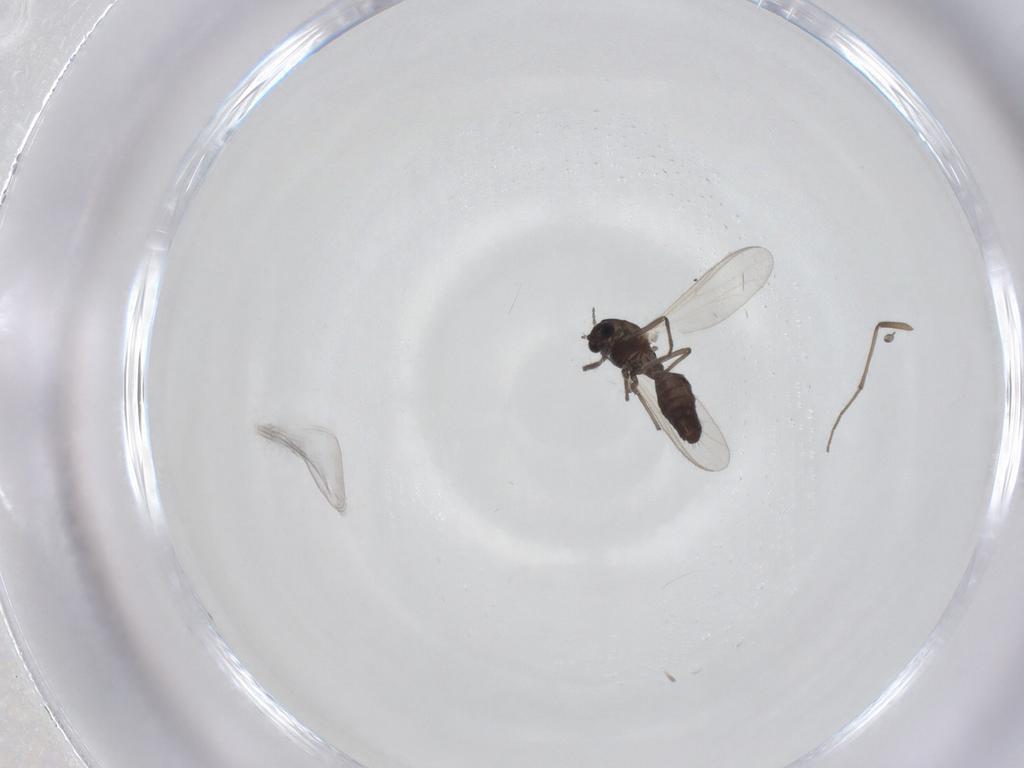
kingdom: Animalia
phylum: Arthropoda
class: Insecta
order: Diptera
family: Chironomidae
